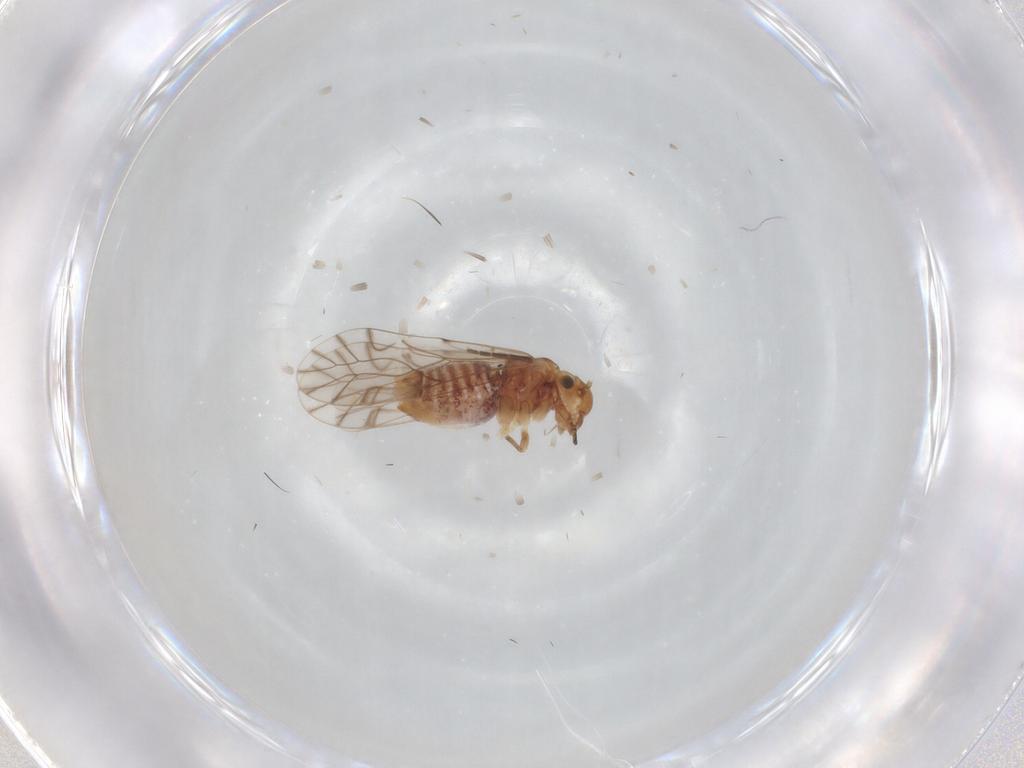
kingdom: Animalia
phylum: Arthropoda
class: Insecta
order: Psocodea
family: Lachesillidae
